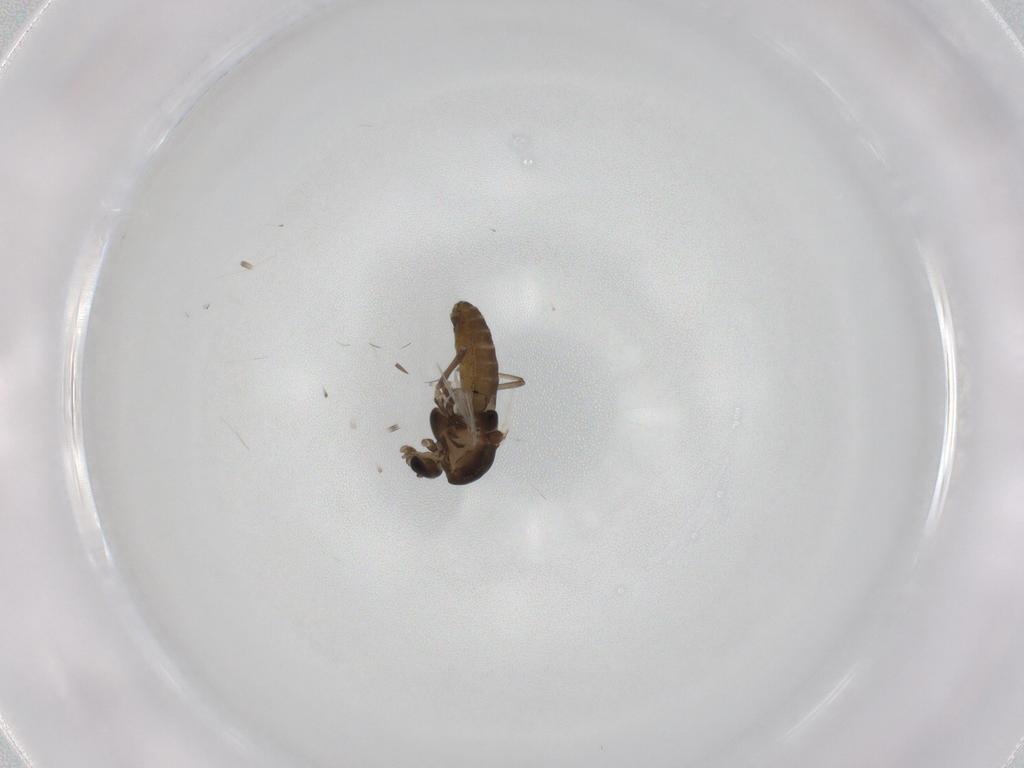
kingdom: Animalia
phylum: Arthropoda
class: Insecta
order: Diptera
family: Chironomidae
